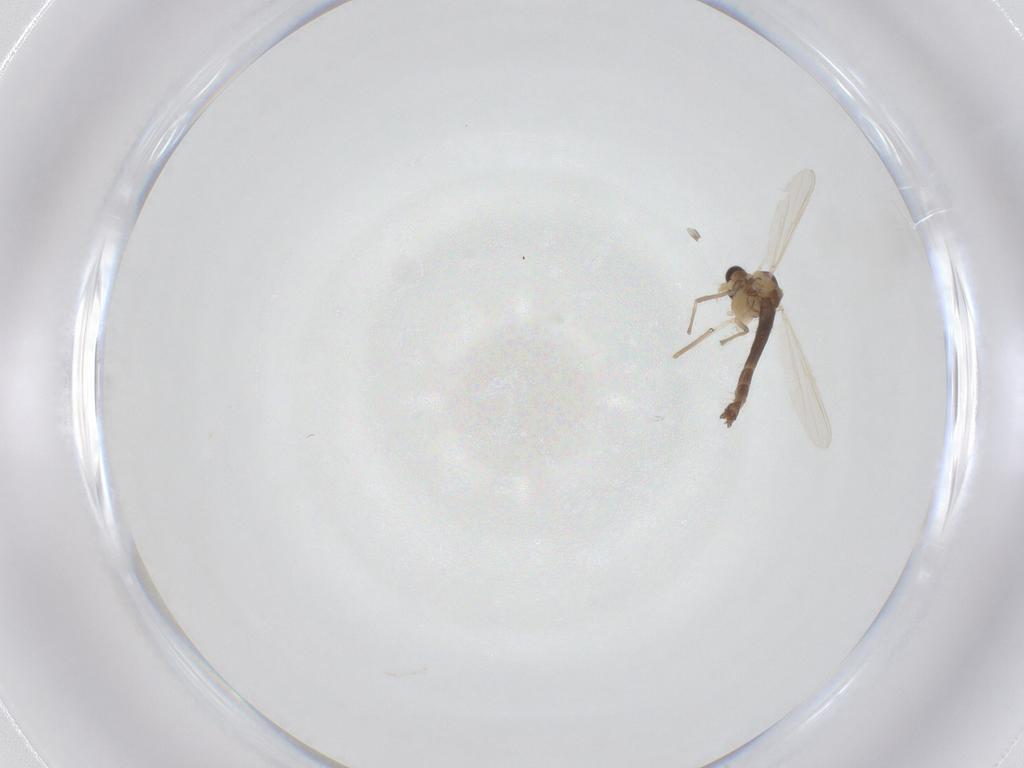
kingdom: Animalia
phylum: Arthropoda
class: Insecta
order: Diptera
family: Chironomidae
